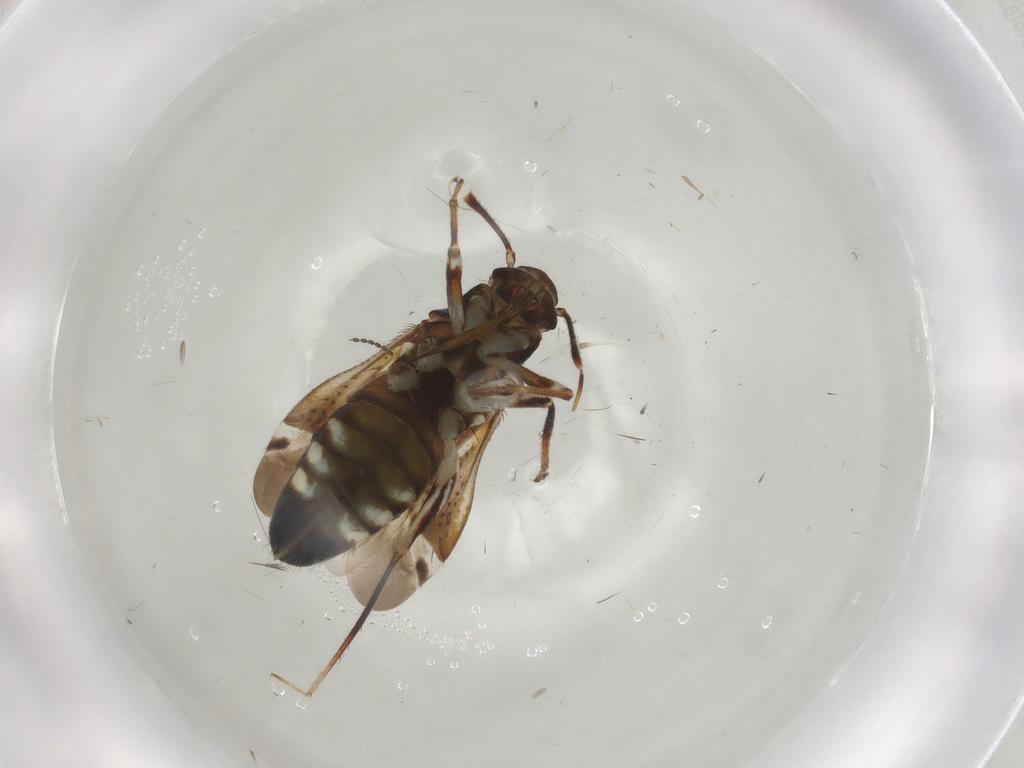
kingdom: Animalia
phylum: Arthropoda
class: Insecta
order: Hemiptera
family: Miridae
